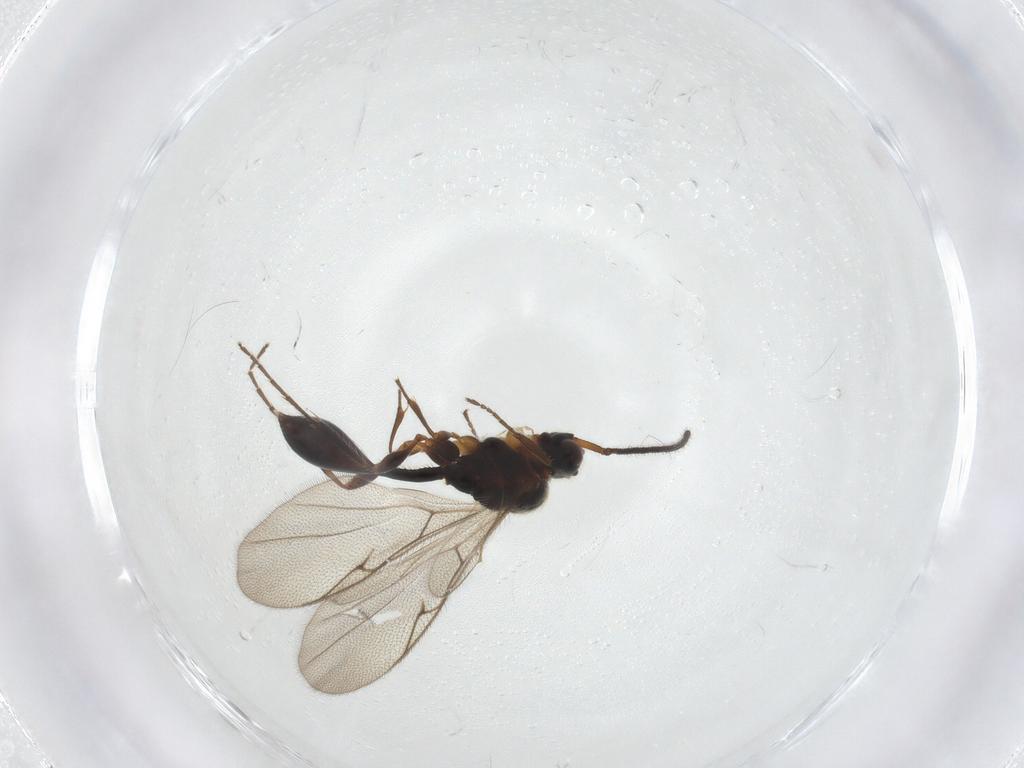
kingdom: Animalia
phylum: Arthropoda
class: Insecta
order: Hymenoptera
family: Diapriidae
